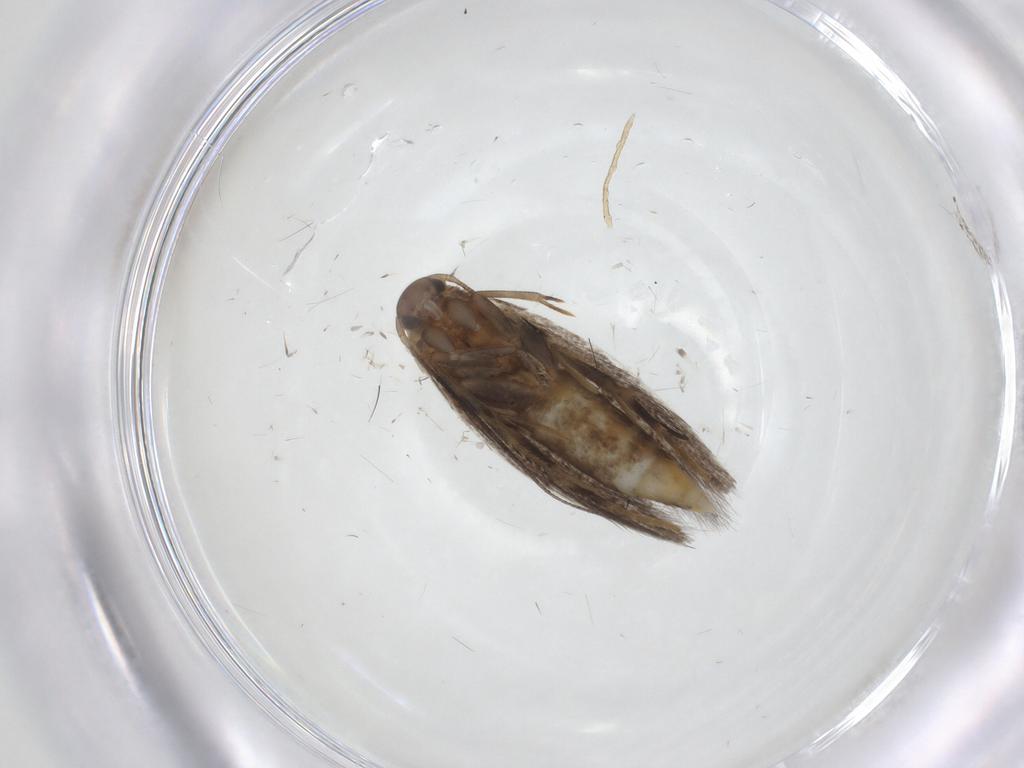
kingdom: Animalia
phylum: Arthropoda
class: Insecta
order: Lepidoptera
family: Elachistidae
